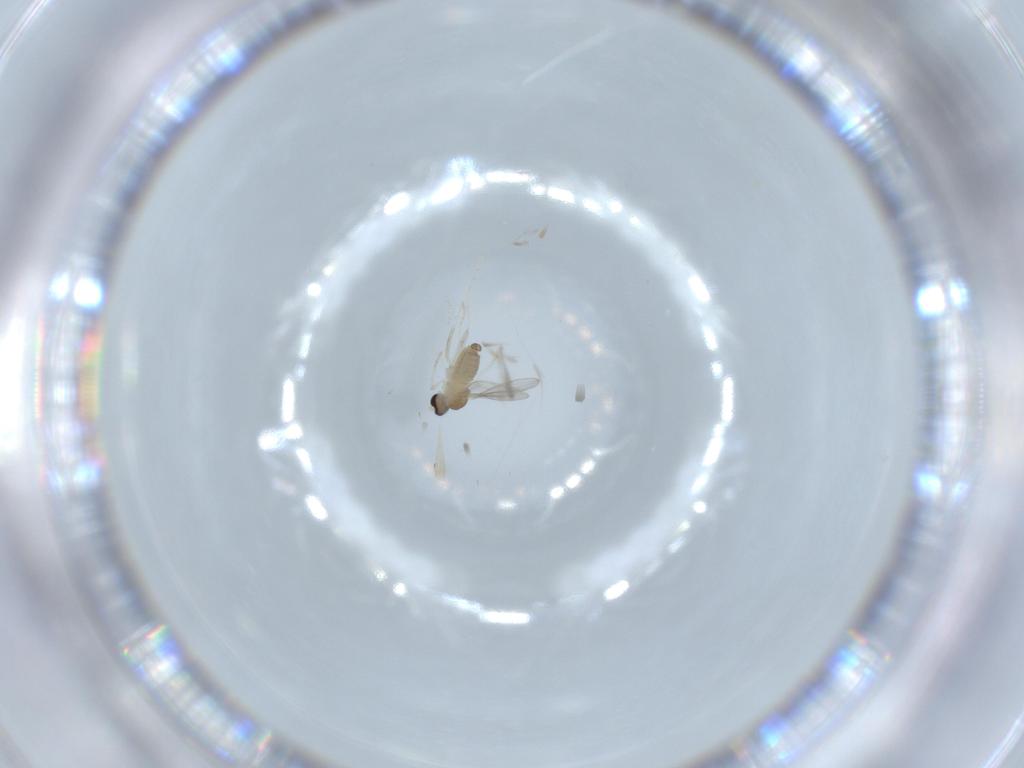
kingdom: Animalia
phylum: Arthropoda
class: Insecta
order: Diptera
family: Cecidomyiidae
